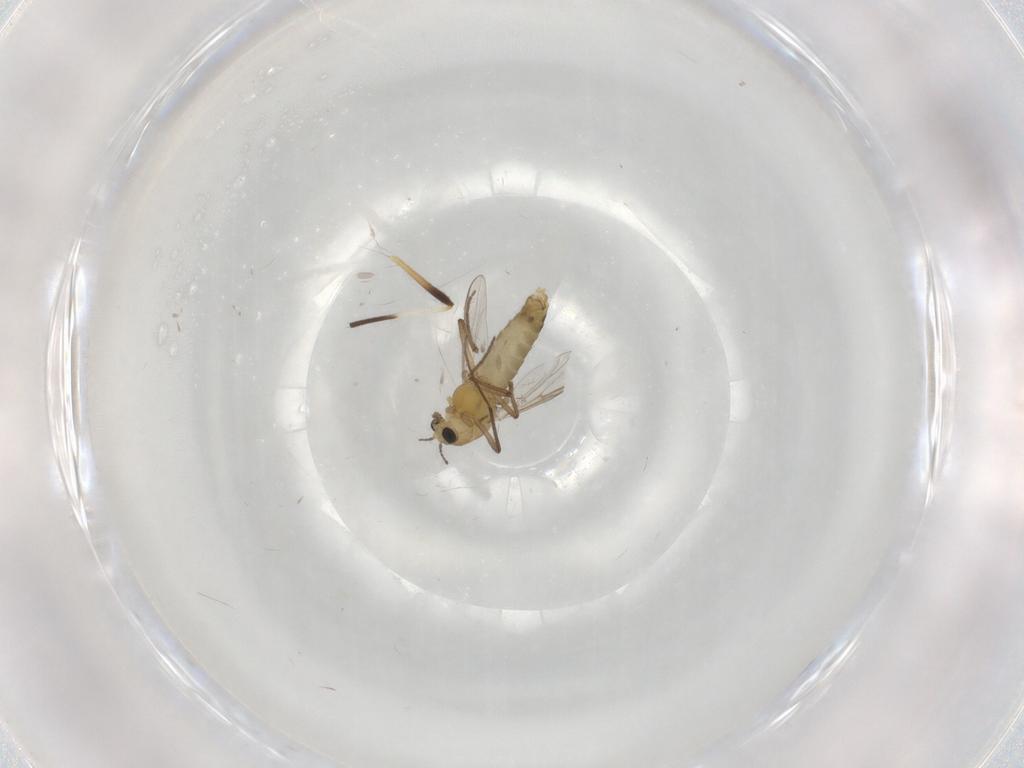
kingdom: Animalia
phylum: Arthropoda
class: Insecta
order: Diptera
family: Chironomidae
